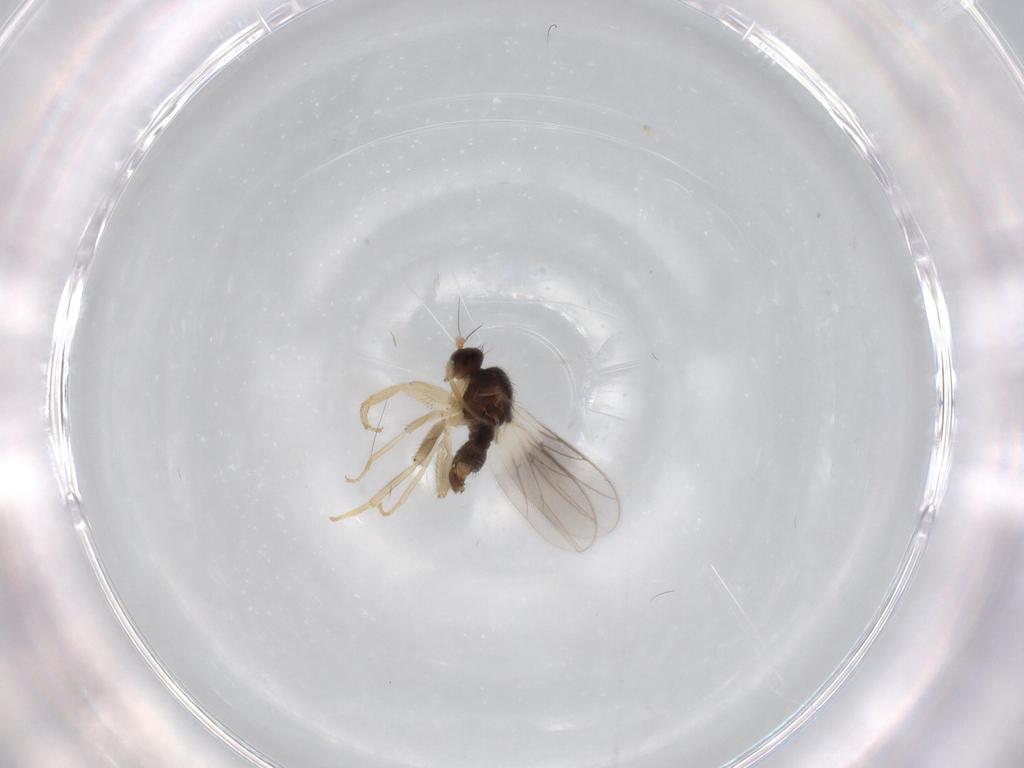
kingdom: Animalia
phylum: Arthropoda
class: Insecta
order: Diptera
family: Hybotidae
